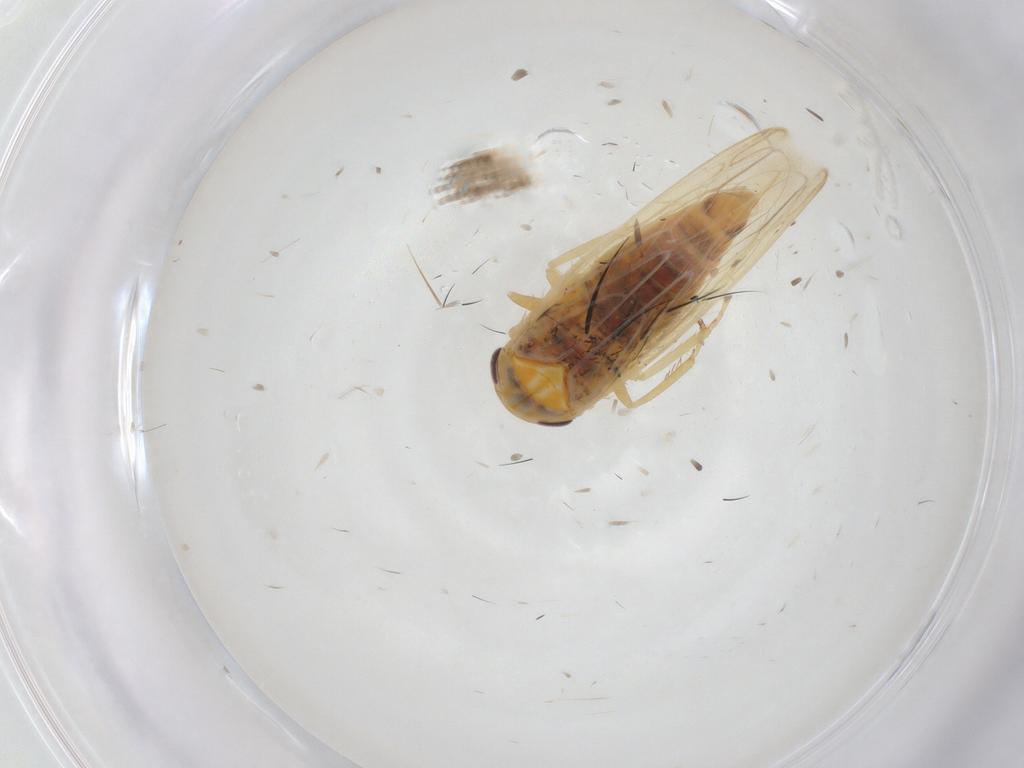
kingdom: Animalia
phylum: Arthropoda
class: Insecta
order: Hemiptera
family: Cicadellidae
